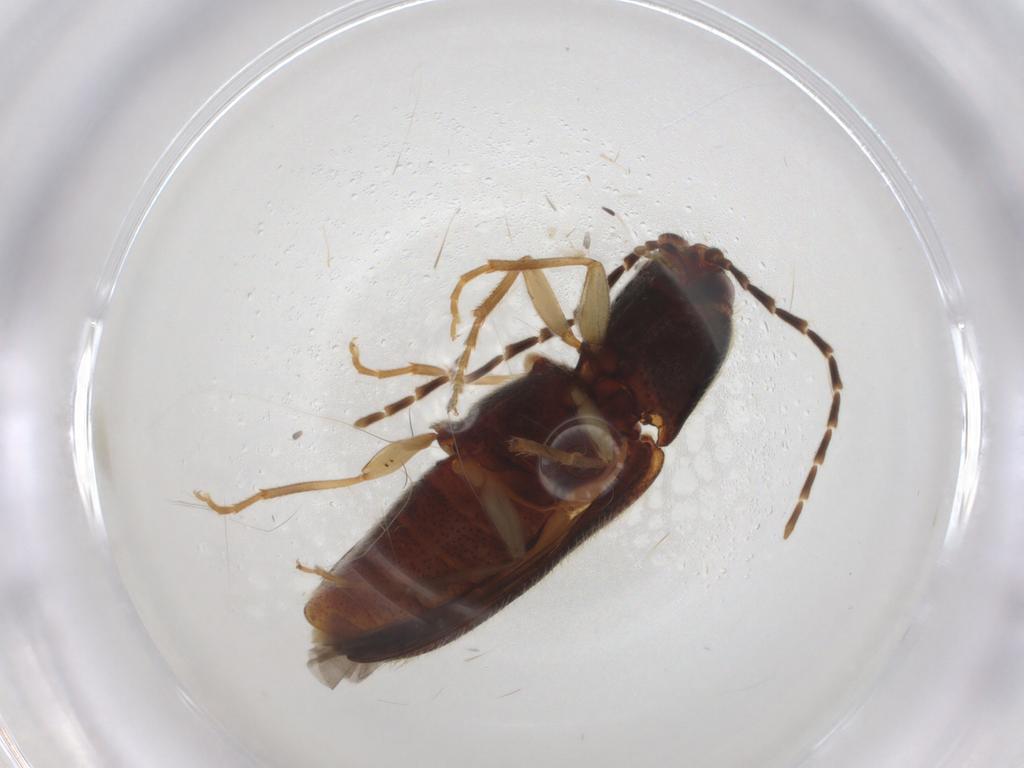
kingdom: Animalia
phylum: Arthropoda
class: Insecta
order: Coleoptera
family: Elateridae
